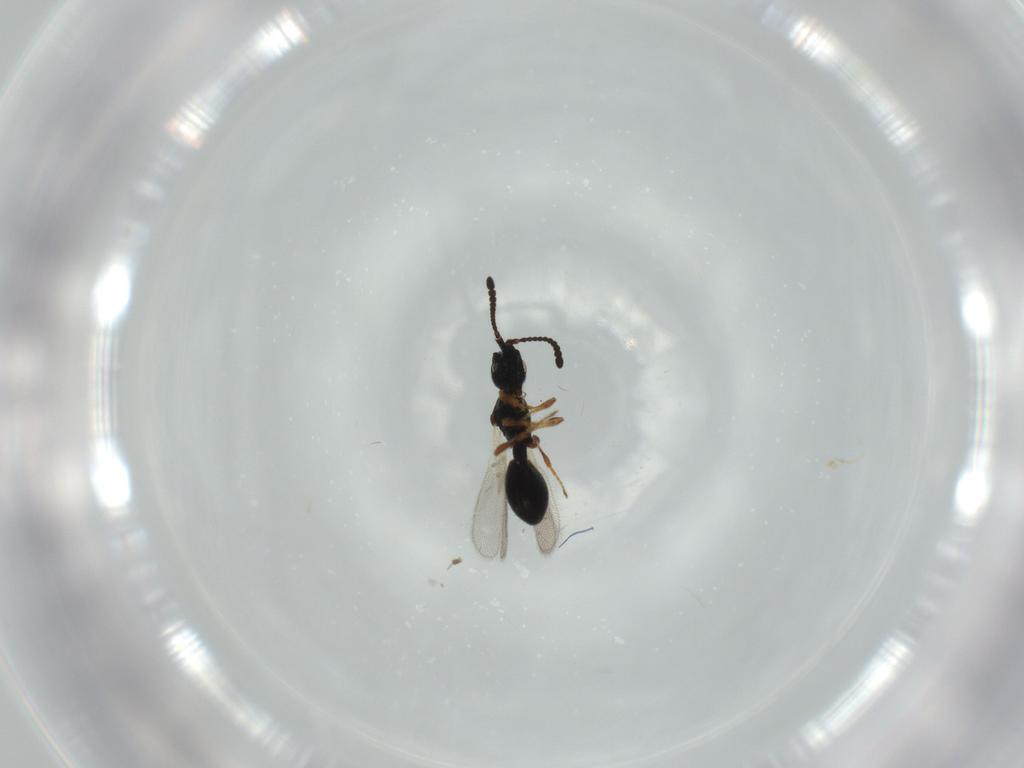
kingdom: Animalia
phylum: Arthropoda
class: Insecta
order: Hymenoptera
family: Diapriidae
